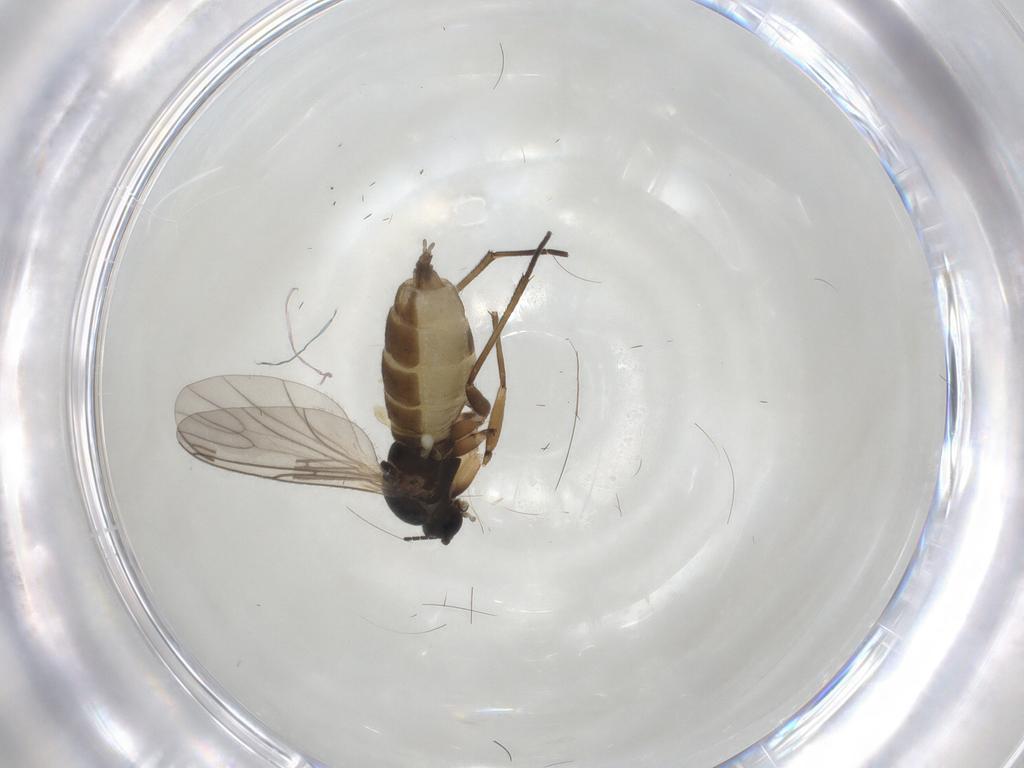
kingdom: Animalia
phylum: Arthropoda
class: Insecta
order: Diptera
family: Sciaridae
